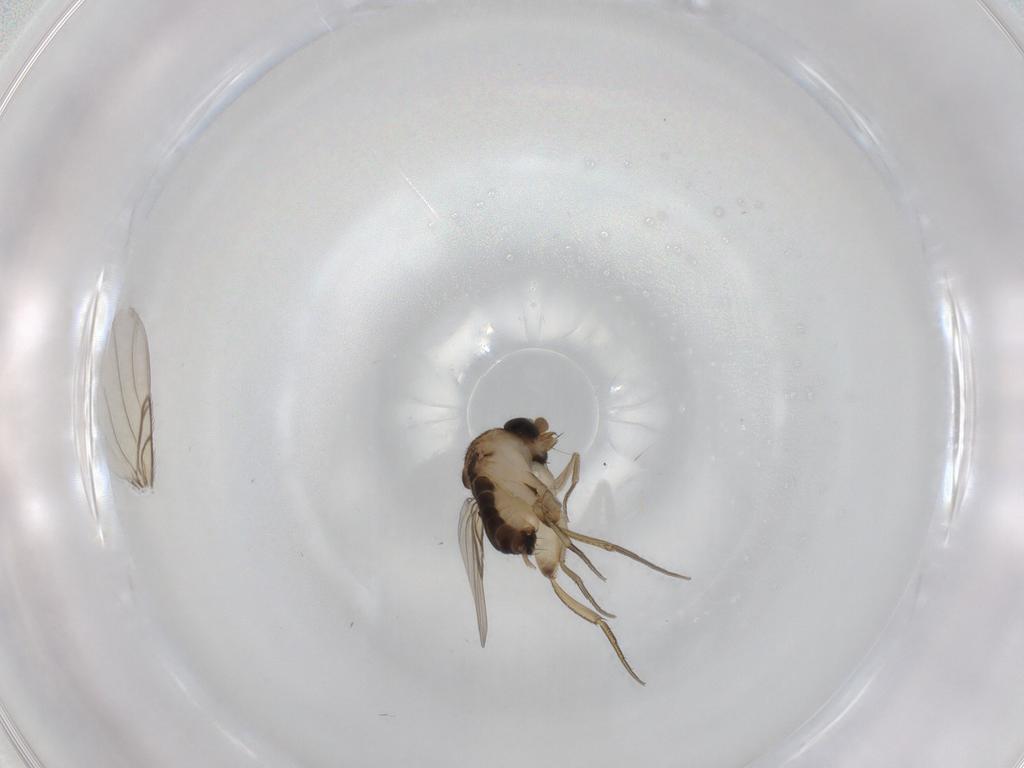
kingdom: Animalia
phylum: Arthropoda
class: Insecta
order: Diptera
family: Phoridae
